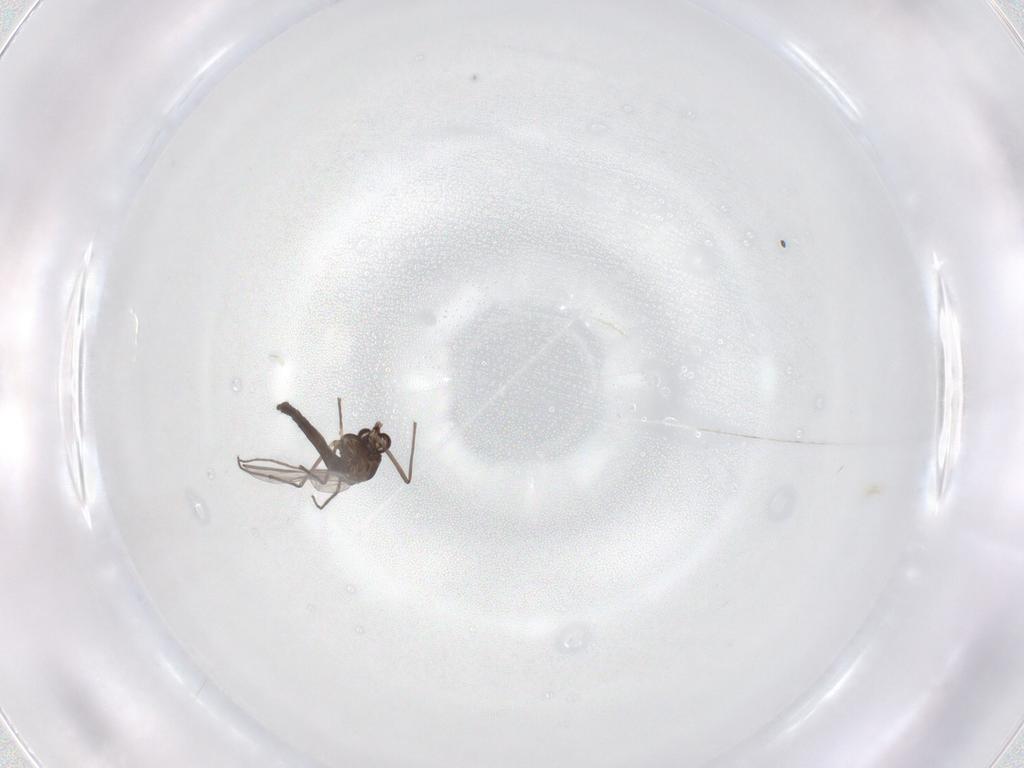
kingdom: Animalia
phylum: Arthropoda
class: Insecta
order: Diptera
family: Chironomidae
